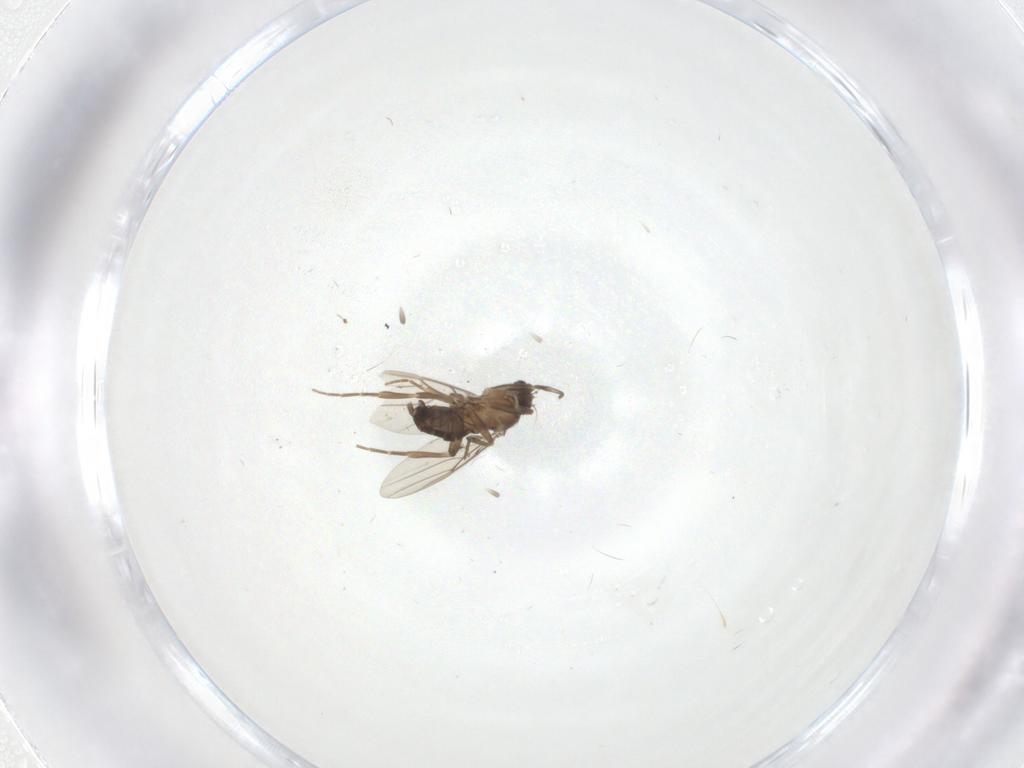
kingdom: Animalia
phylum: Arthropoda
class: Insecta
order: Diptera
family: Phoridae
